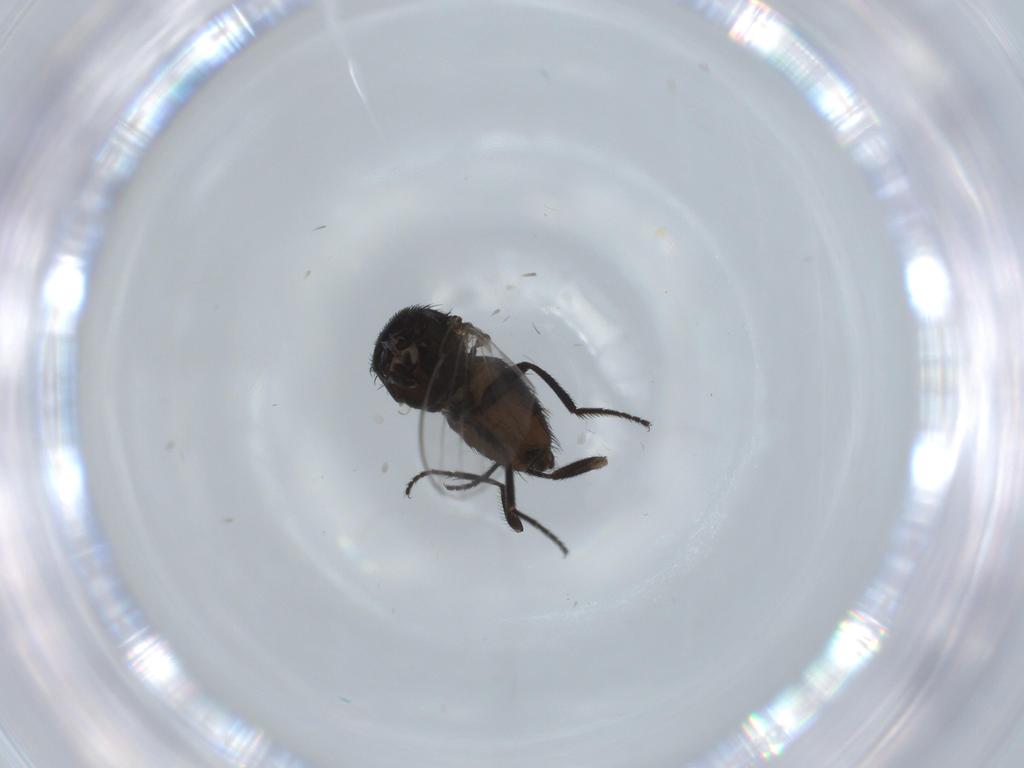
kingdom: Animalia
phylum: Arthropoda
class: Insecta
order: Diptera
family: Milichiidae
